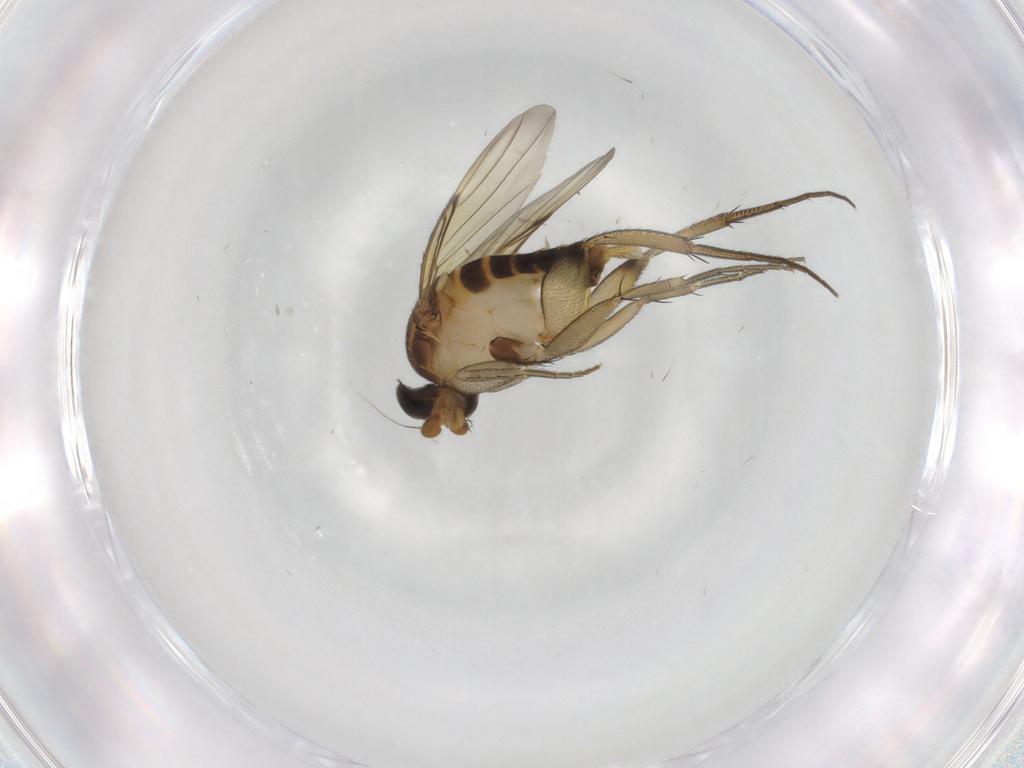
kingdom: Animalia
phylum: Arthropoda
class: Insecta
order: Diptera
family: Phoridae
